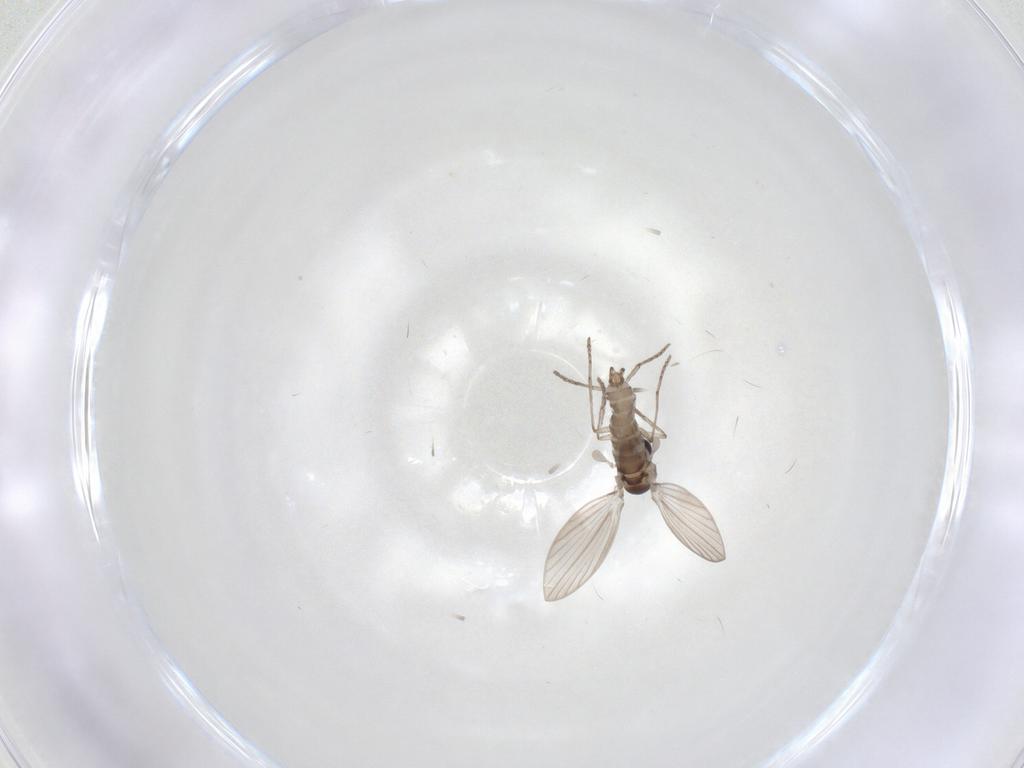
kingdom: Animalia
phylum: Arthropoda
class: Insecta
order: Diptera
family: Psychodidae
